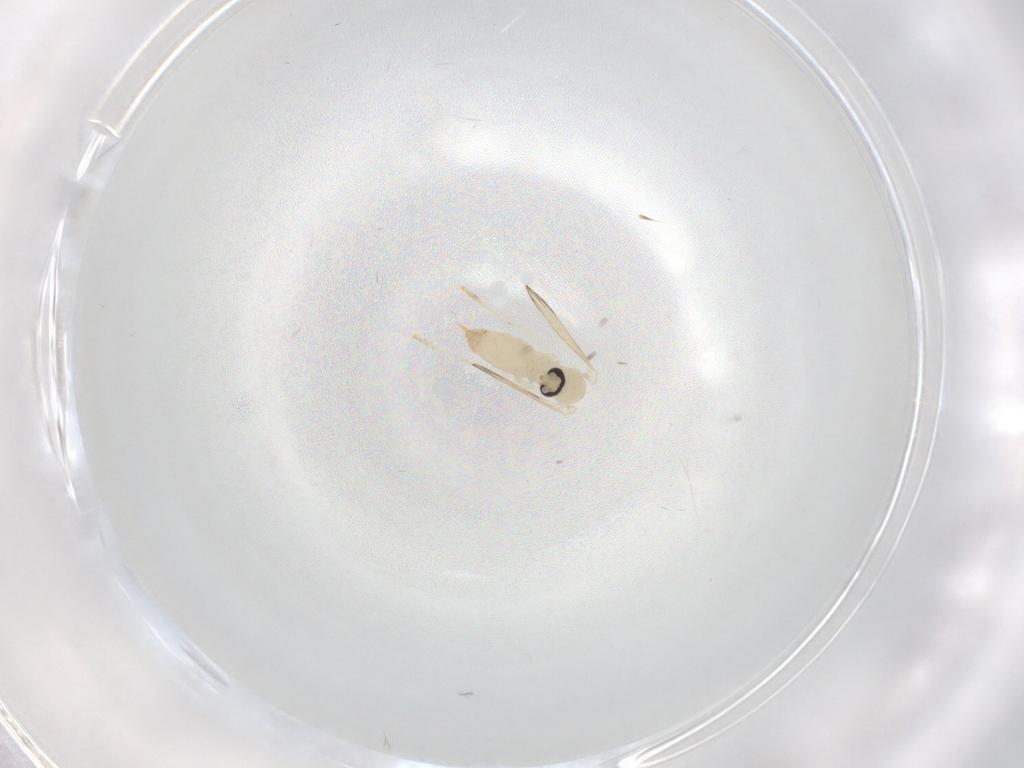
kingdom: Animalia
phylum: Arthropoda
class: Insecta
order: Diptera
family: Psychodidae
